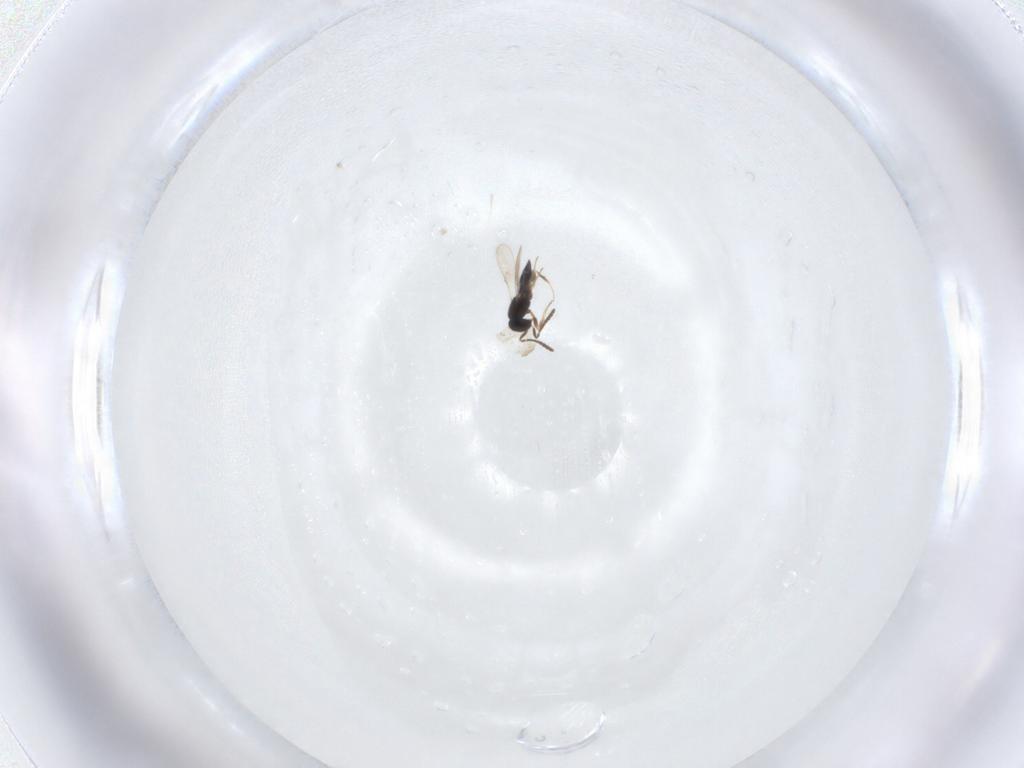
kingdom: Animalia
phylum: Arthropoda
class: Insecta
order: Hymenoptera
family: Scelionidae
